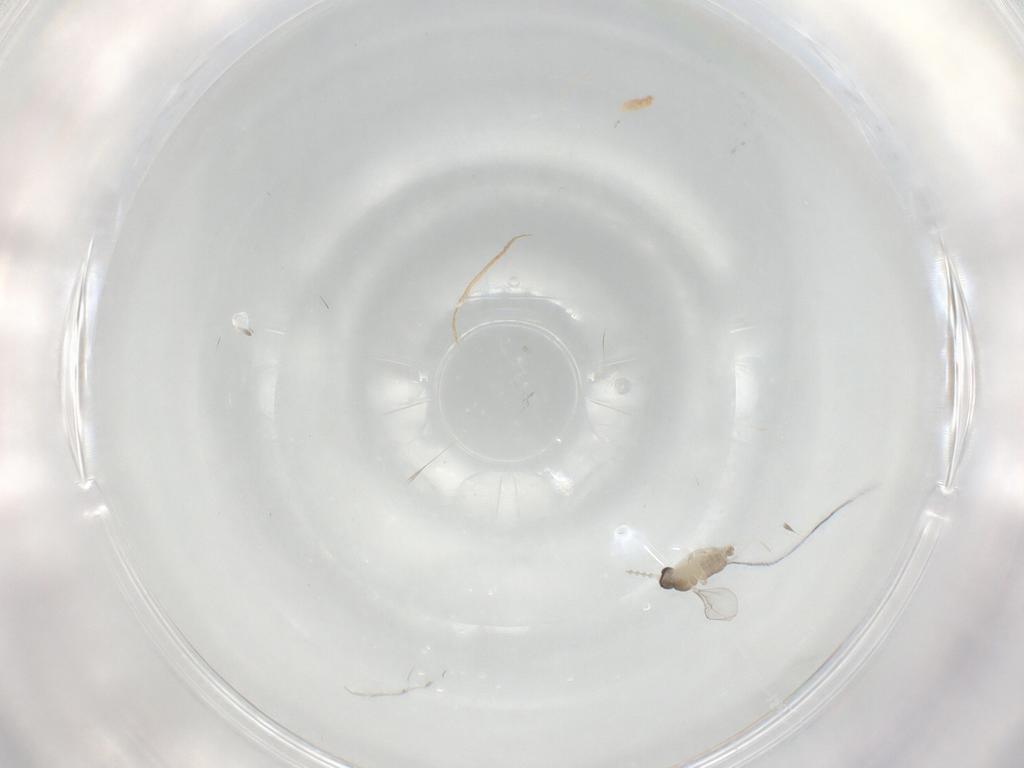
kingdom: Animalia
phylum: Arthropoda
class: Insecta
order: Diptera
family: Cecidomyiidae
